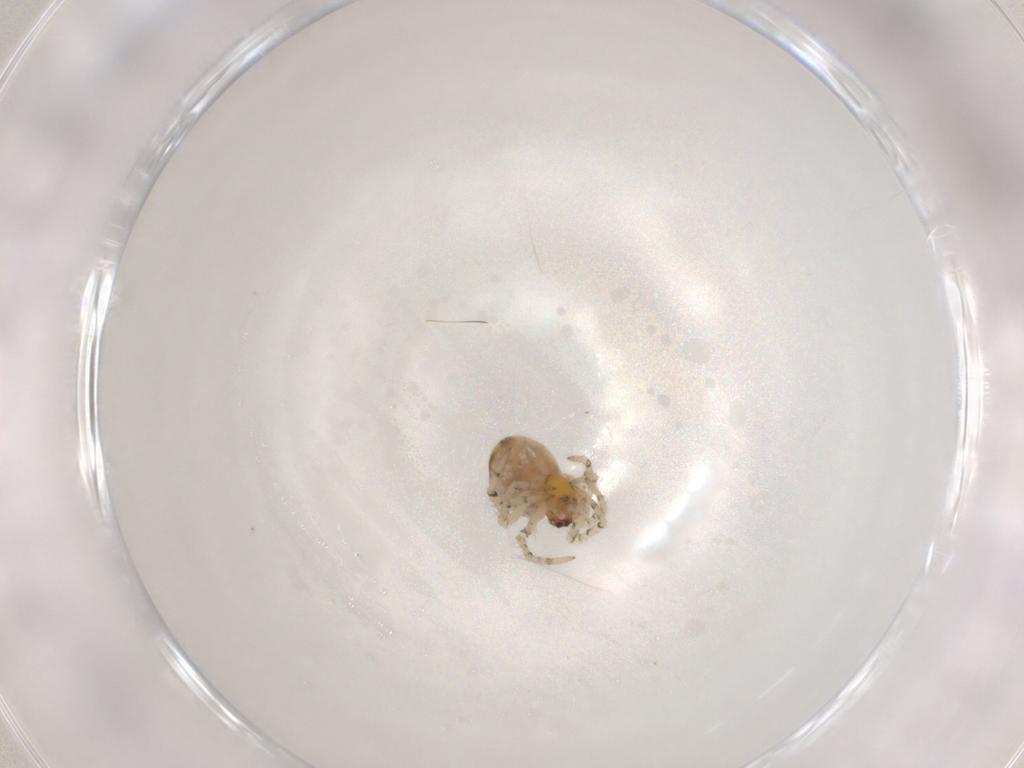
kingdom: Animalia
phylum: Arthropoda
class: Arachnida
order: Araneae
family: Theridiidae
